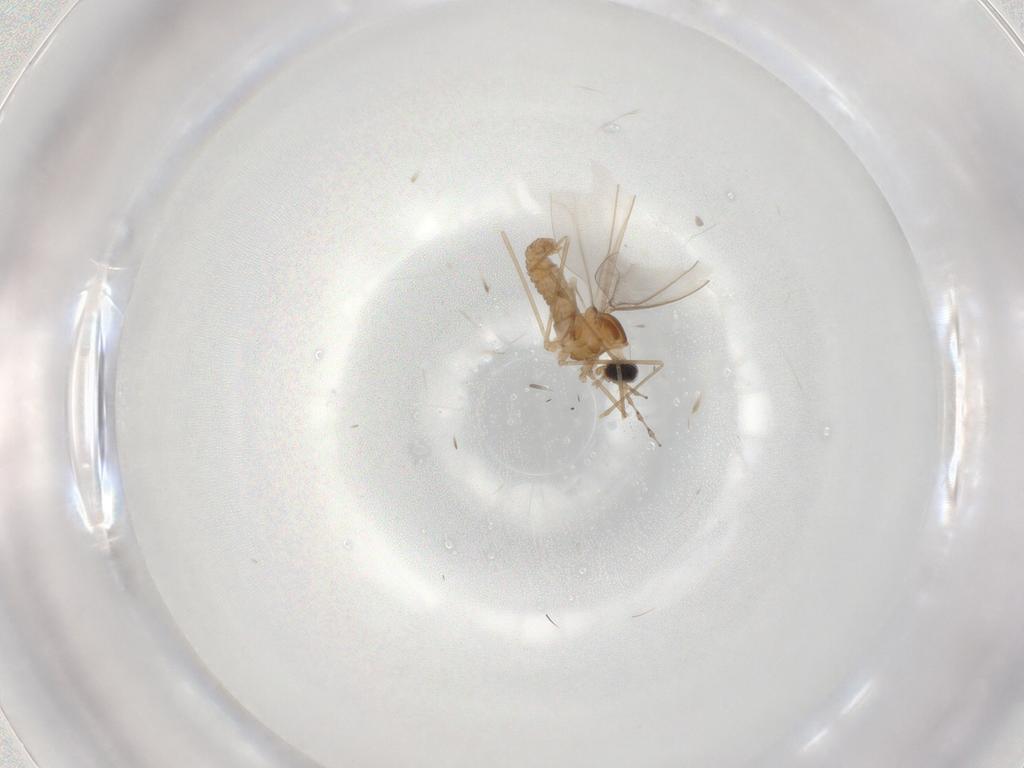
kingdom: Animalia
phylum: Arthropoda
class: Insecta
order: Diptera
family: Cecidomyiidae
